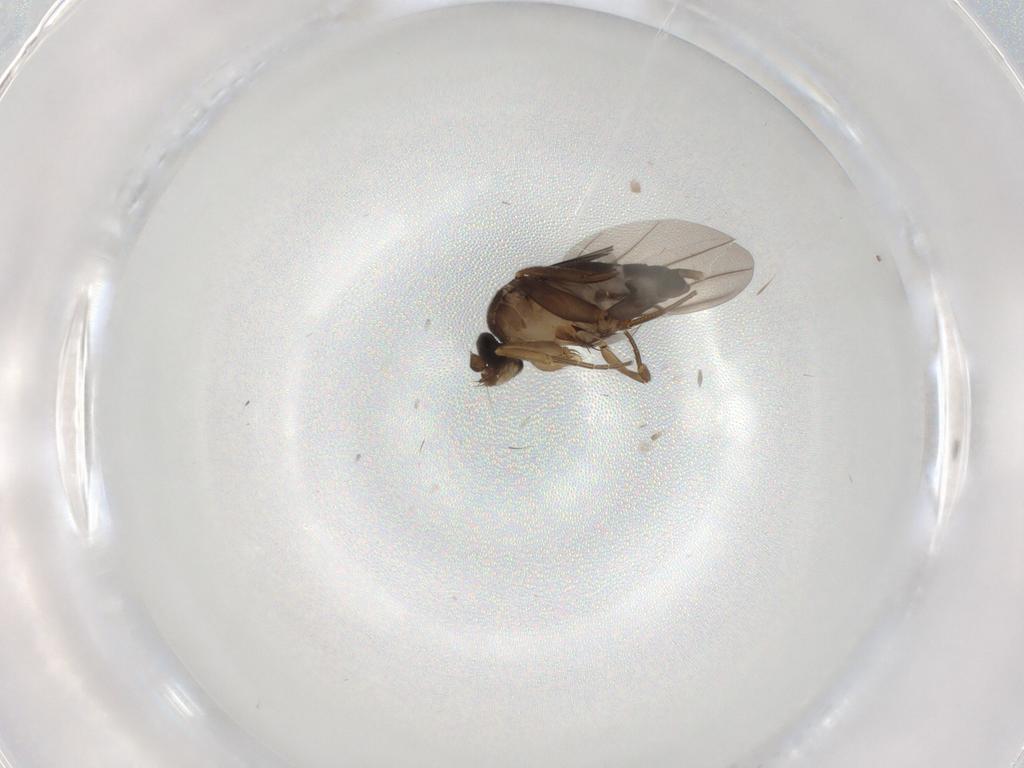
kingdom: Animalia
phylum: Arthropoda
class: Insecta
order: Diptera
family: Phoridae
